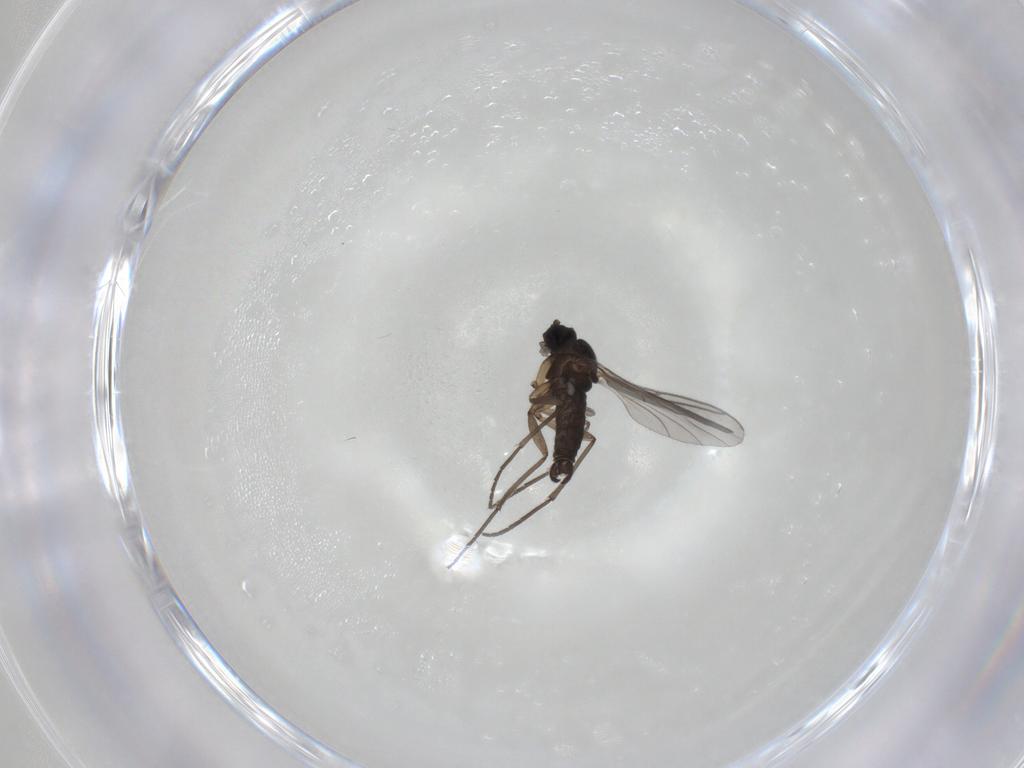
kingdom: Animalia
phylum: Arthropoda
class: Insecta
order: Diptera
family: Sciaridae
